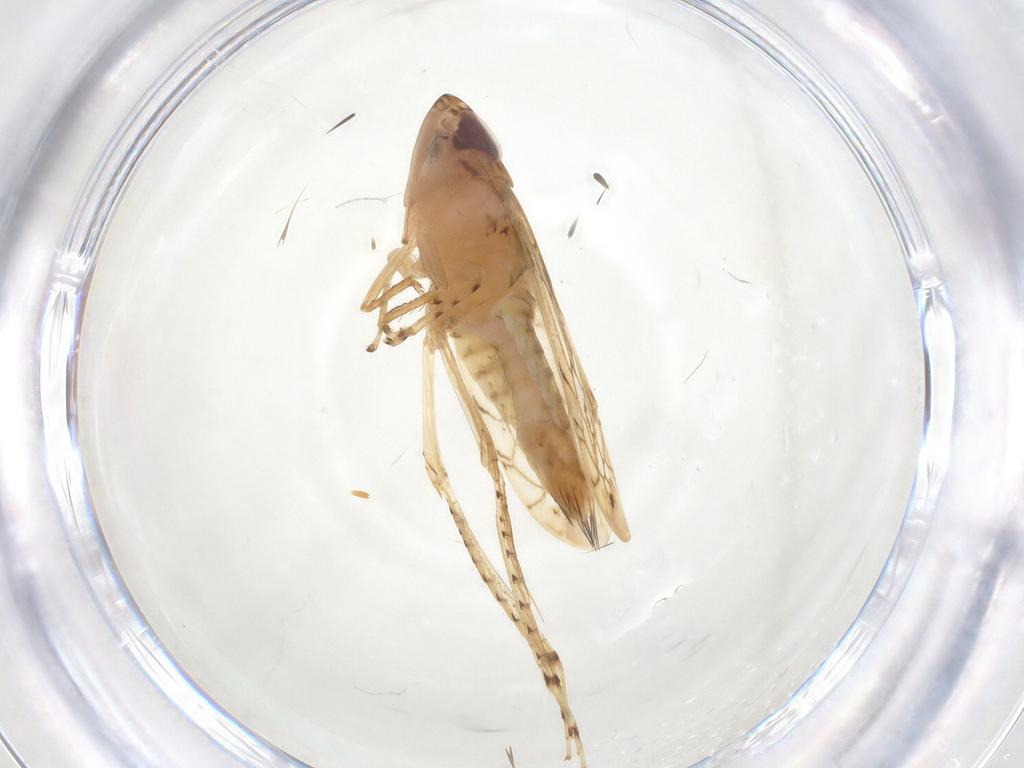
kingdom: Animalia
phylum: Arthropoda
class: Insecta
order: Hemiptera
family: Cicadellidae
